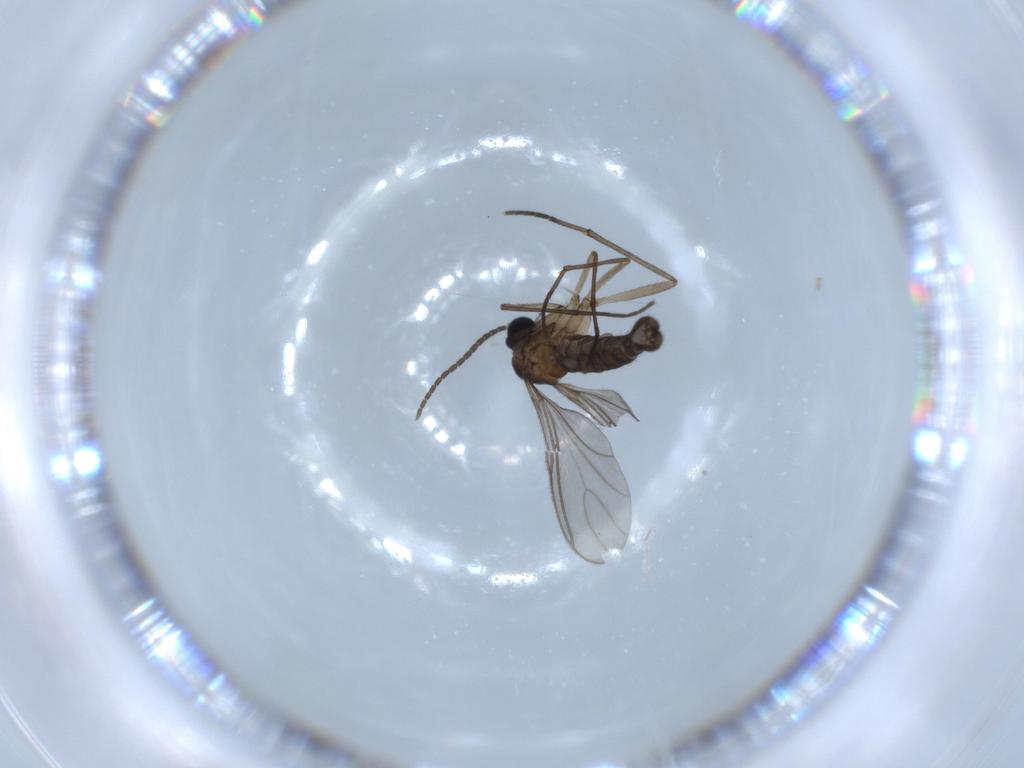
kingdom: Animalia
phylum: Arthropoda
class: Insecta
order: Diptera
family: Sciaridae
